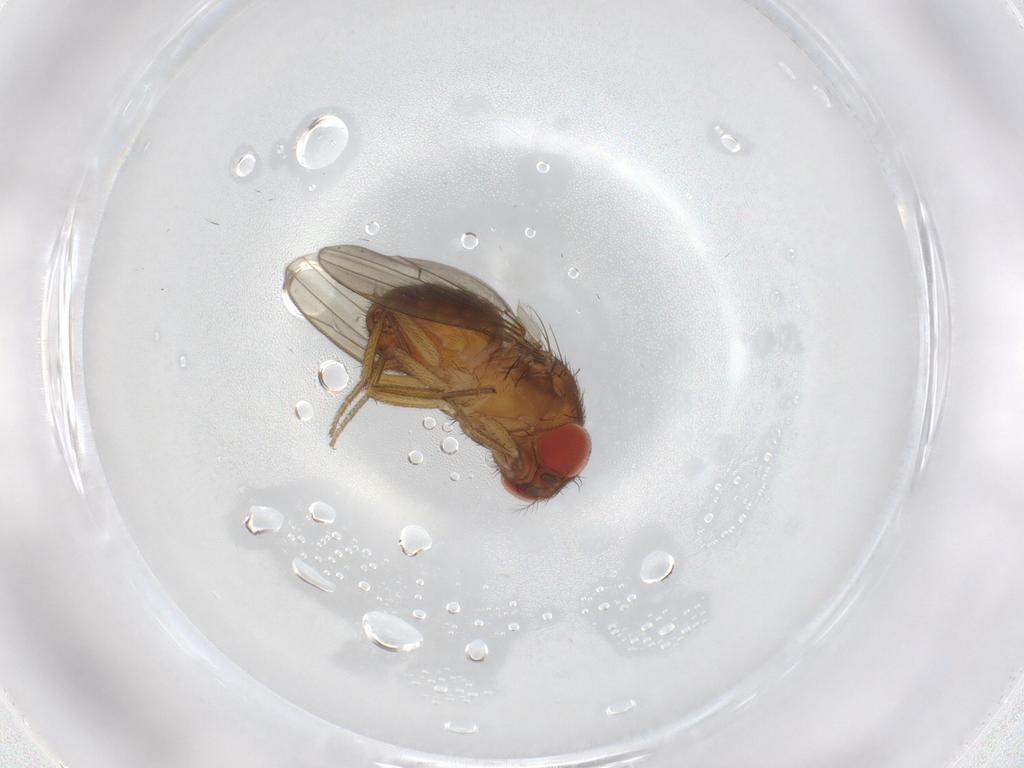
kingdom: Animalia
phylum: Arthropoda
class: Insecta
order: Diptera
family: Drosophilidae
